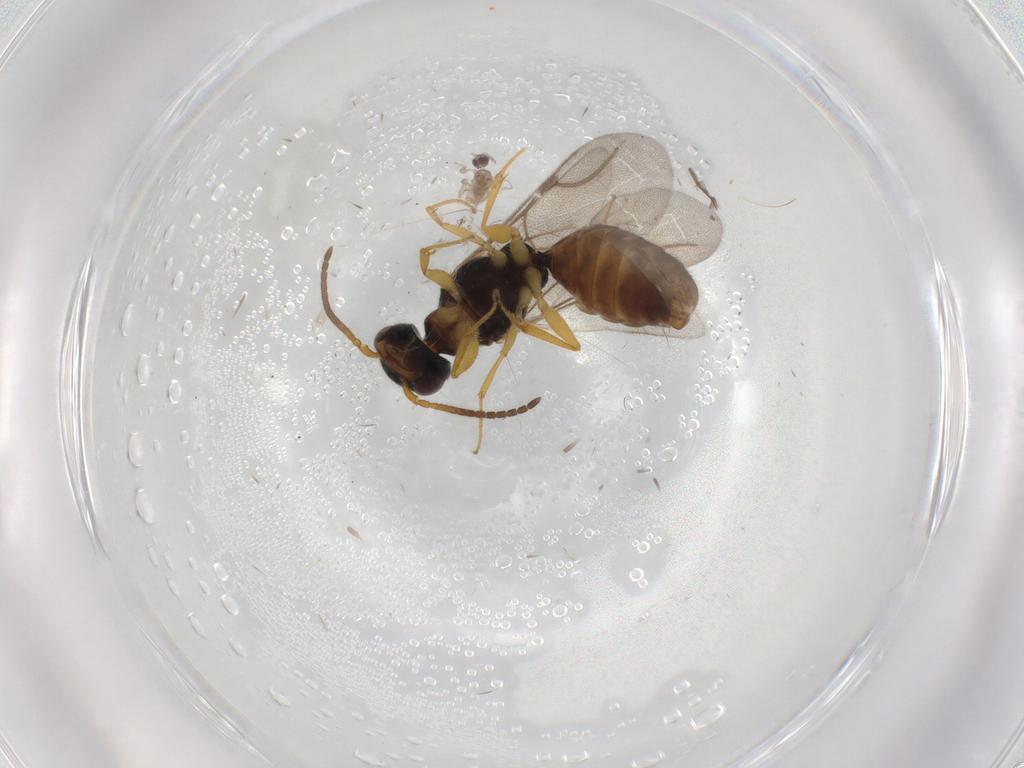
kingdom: Animalia
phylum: Arthropoda
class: Insecta
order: Hymenoptera
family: Bethylidae
